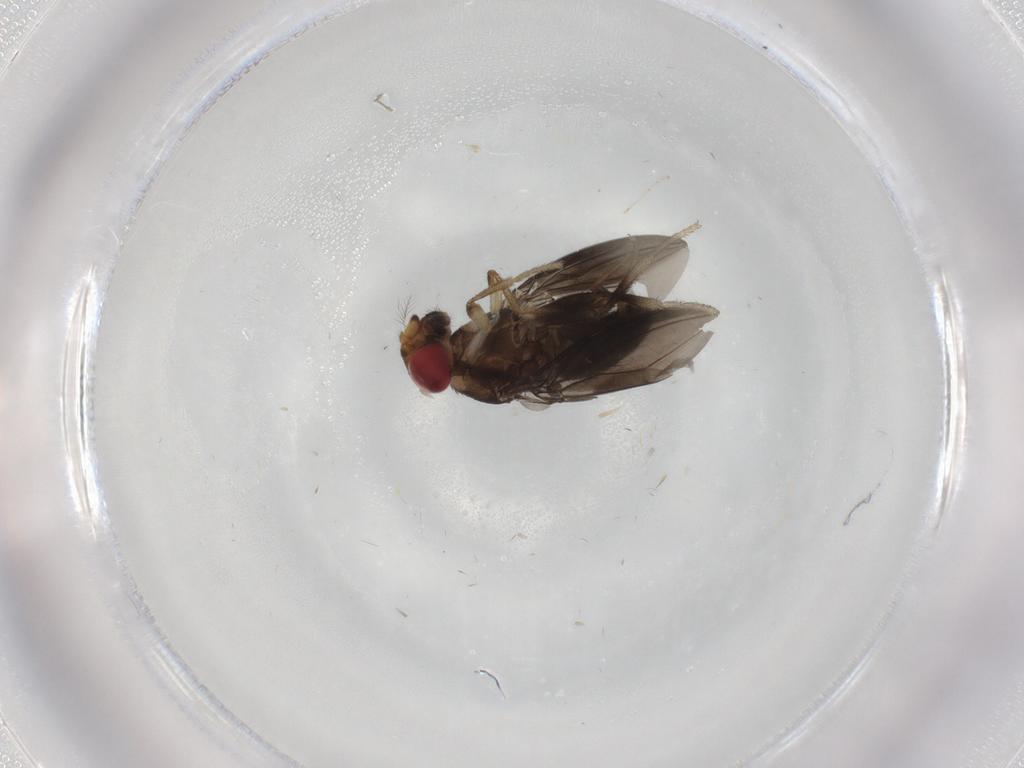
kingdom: Animalia
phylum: Arthropoda
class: Insecta
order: Diptera
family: Drosophilidae
